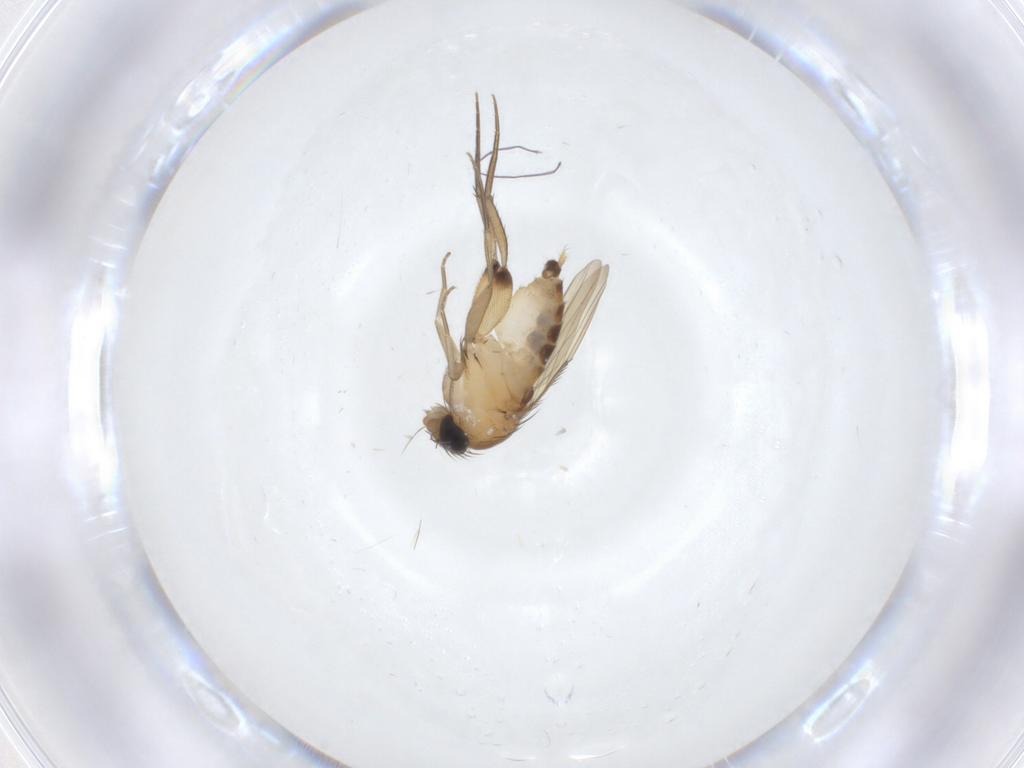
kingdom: Animalia
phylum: Arthropoda
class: Insecta
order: Diptera
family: Phoridae
